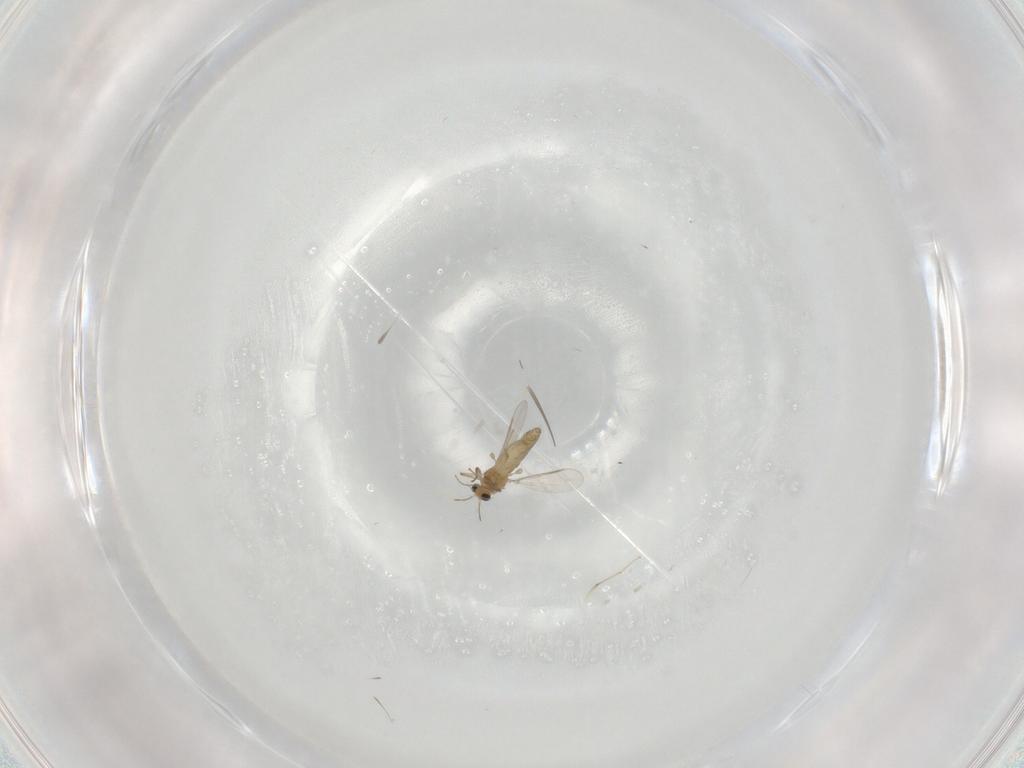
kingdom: Animalia
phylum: Arthropoda
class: Insecta
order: Diptera
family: Chironomidae
